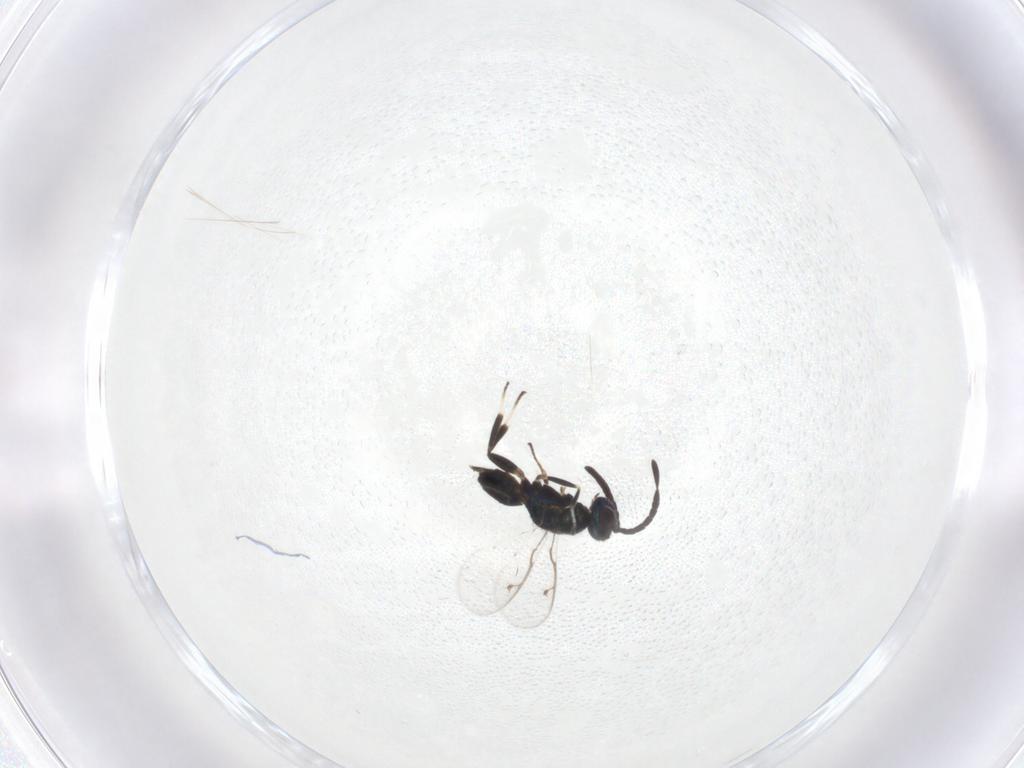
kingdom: Animalia
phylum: Arthropoda
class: Insecta
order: Hymenoptera
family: Eupelmidae
